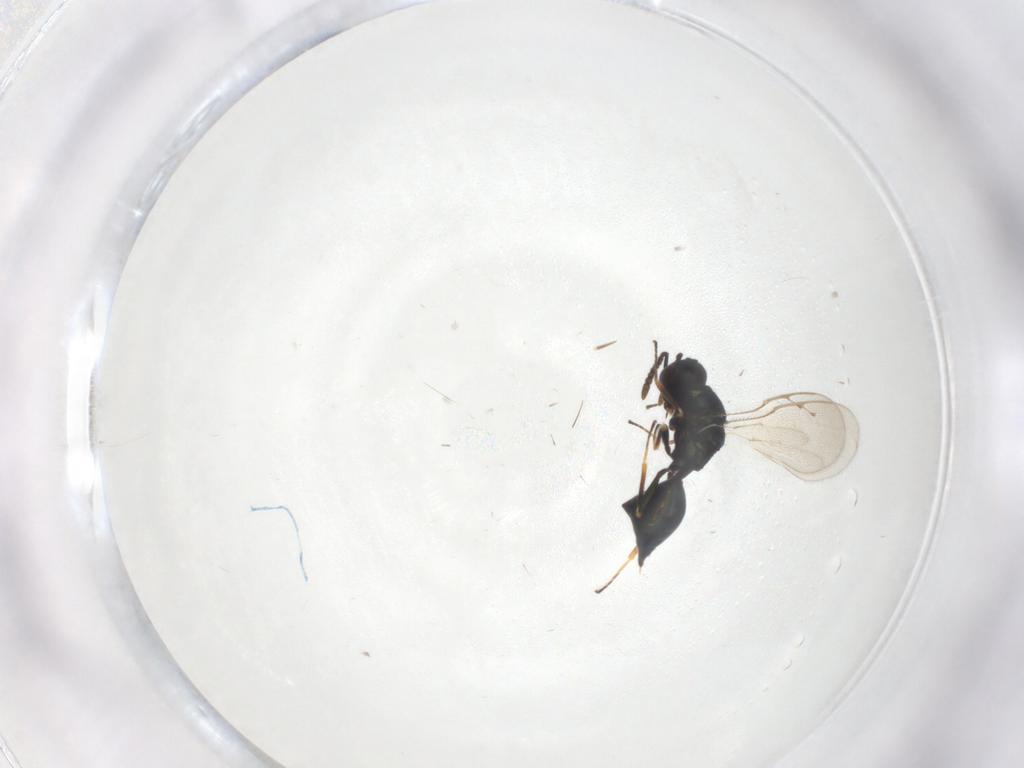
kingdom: Animalia
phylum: Arthropoda
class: Insecta
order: Hymenoptera
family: Pteromalidae
